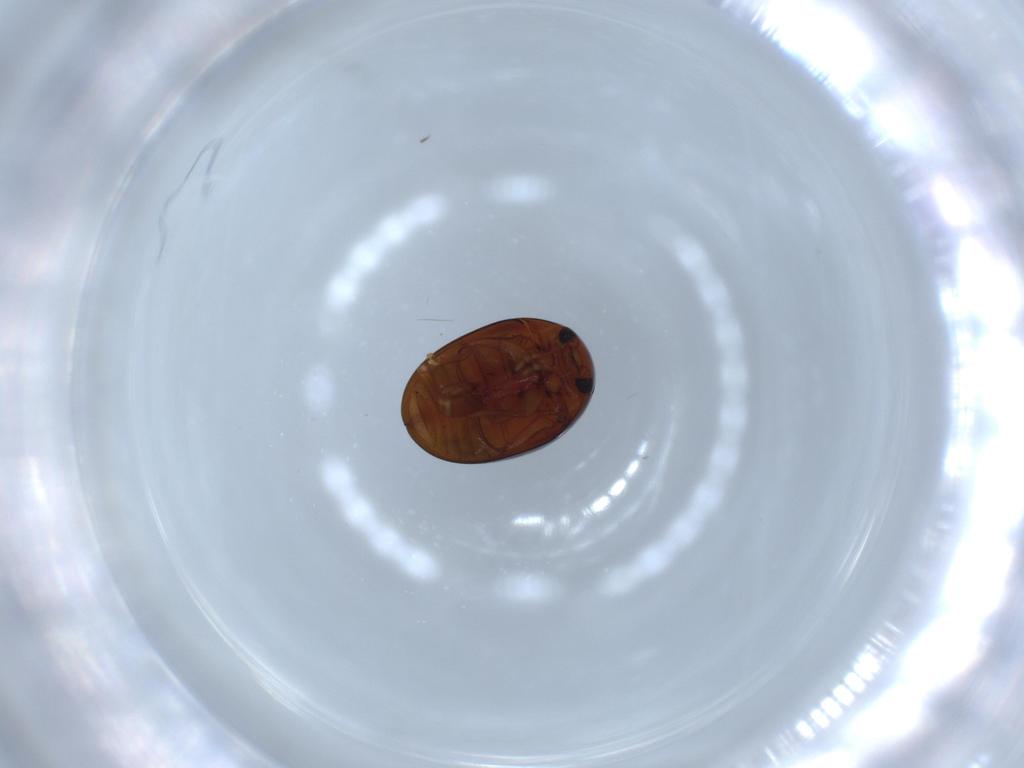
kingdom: Animalia
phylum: Arthropoda
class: Insecta
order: Coleoptera
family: Phalacridae
